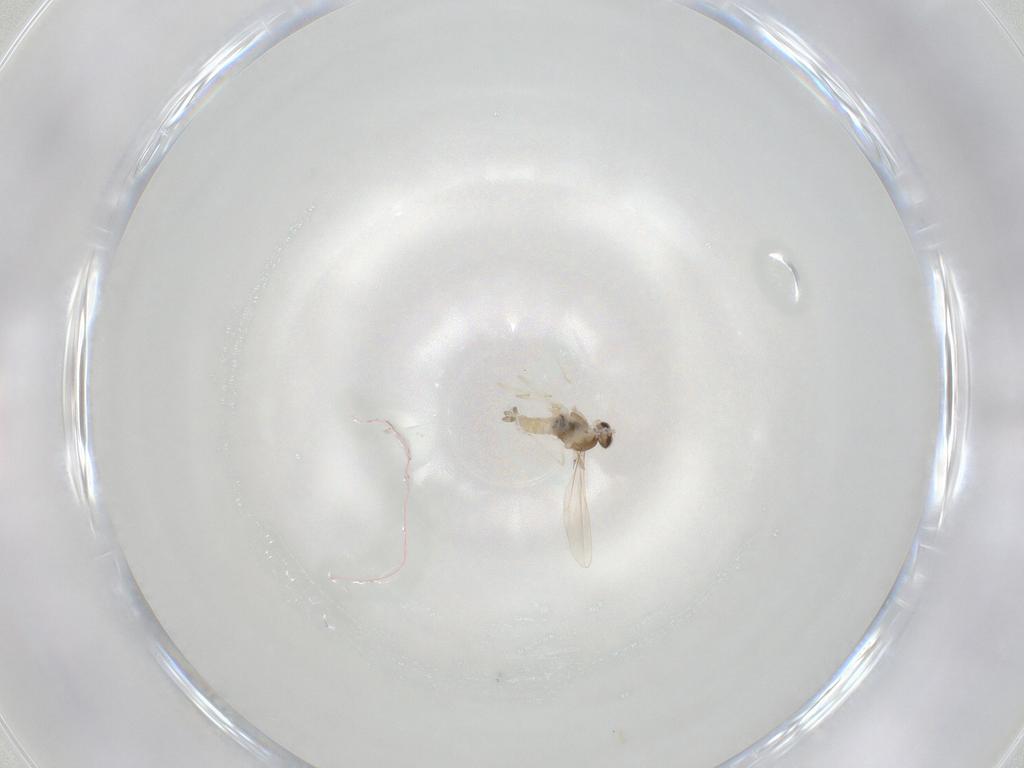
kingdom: Animalia
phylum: Arthropoda
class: Insecta
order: Diptera
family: Cecidomyiidae
